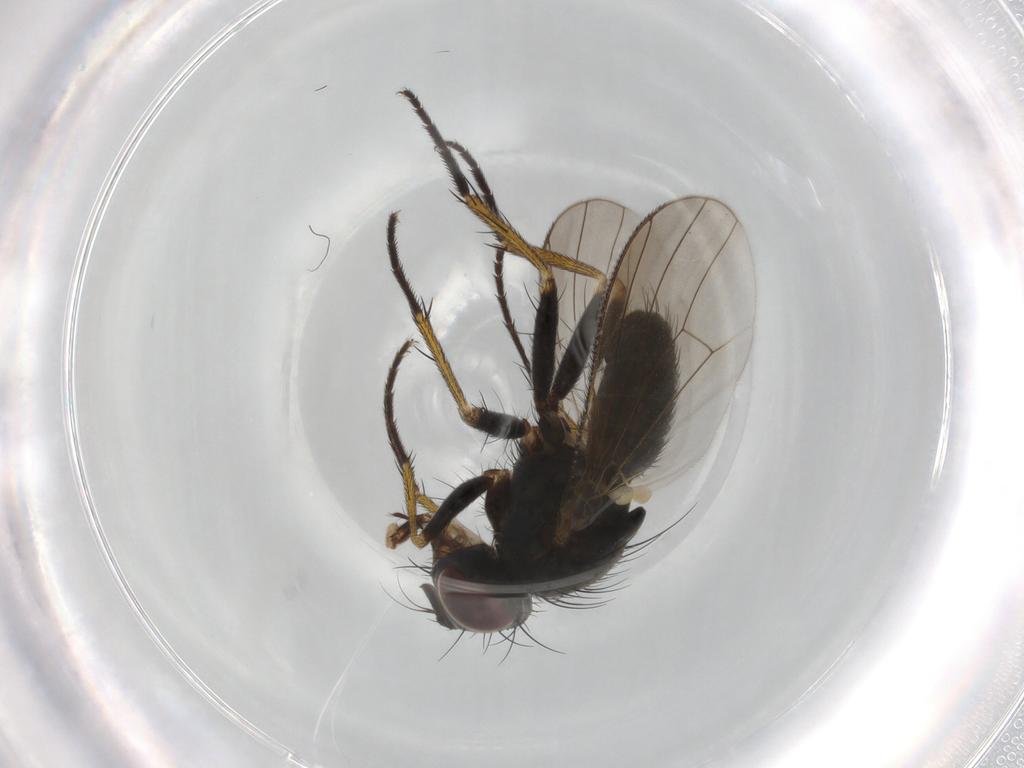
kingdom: Animalia
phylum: Arthropoda
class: Insecta
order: Diptera
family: Muscidae
